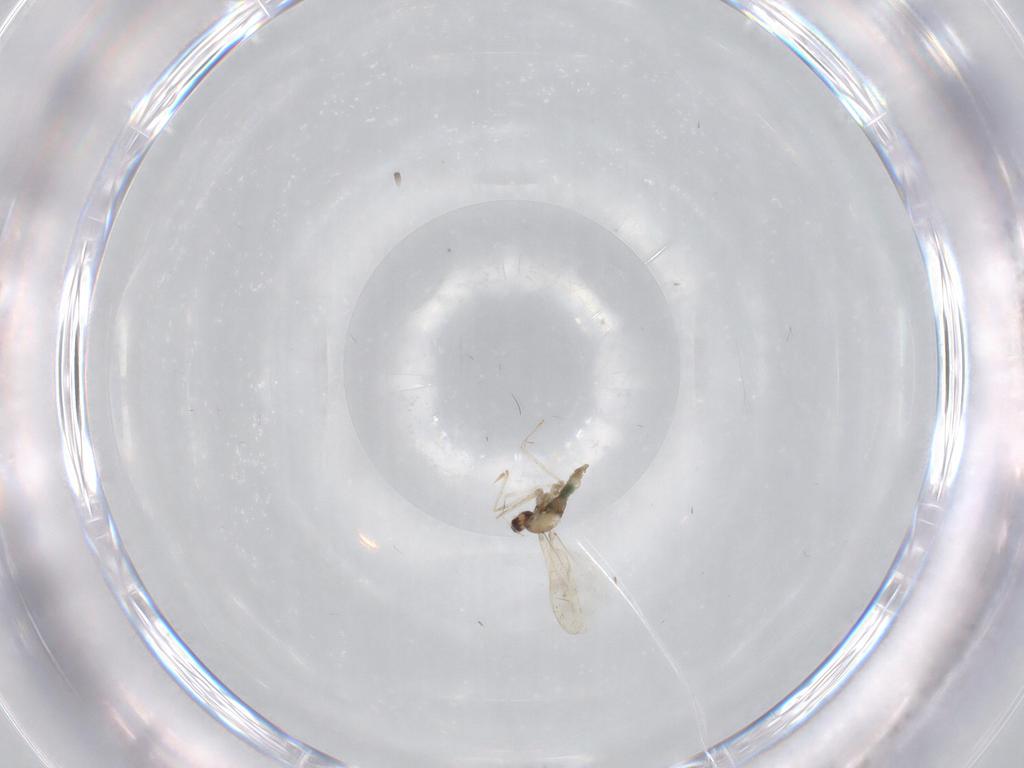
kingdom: Animalia
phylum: Arthropoda
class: Insecta
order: Diptera
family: Cecidomyiidae
